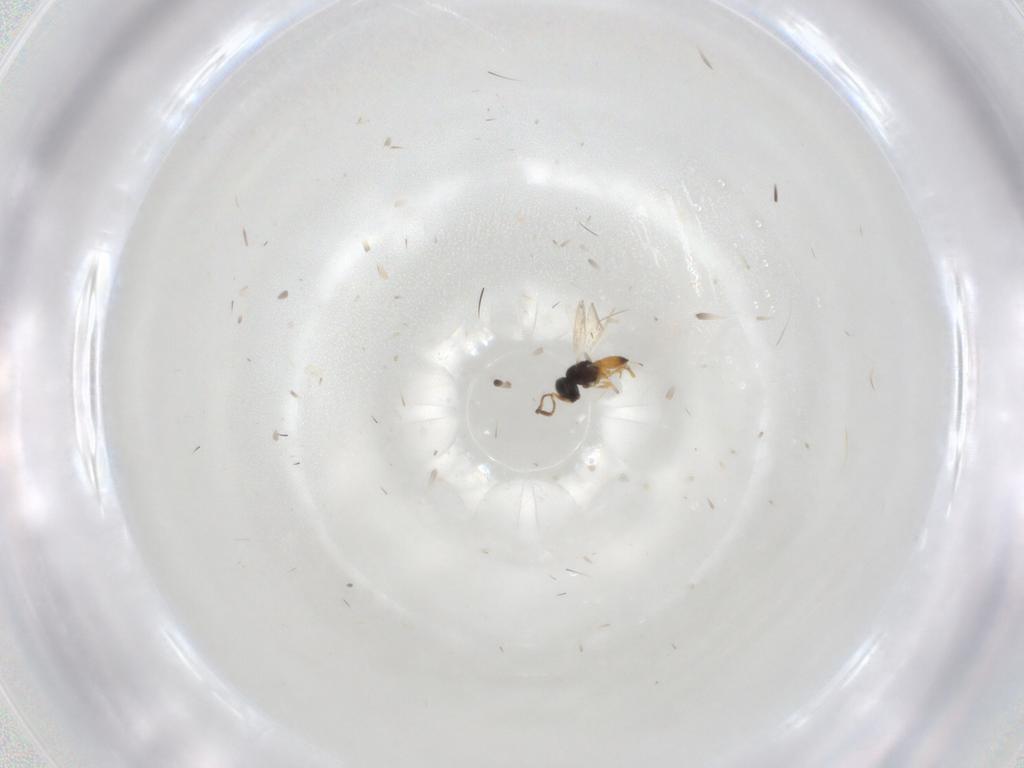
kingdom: Animalia
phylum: Arthropoda
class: Insecta
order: Hymenoptera
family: Scelionidae
